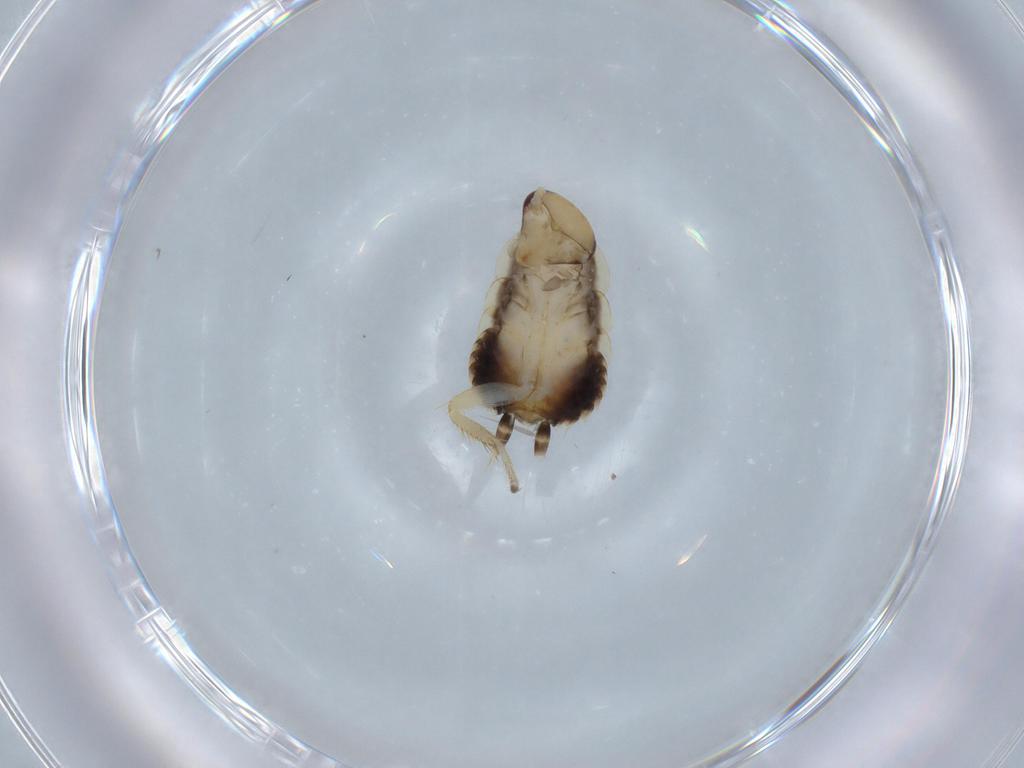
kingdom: Animalia
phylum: Arthropoda
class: Insecta
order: Blattodea
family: Ectobiidae
